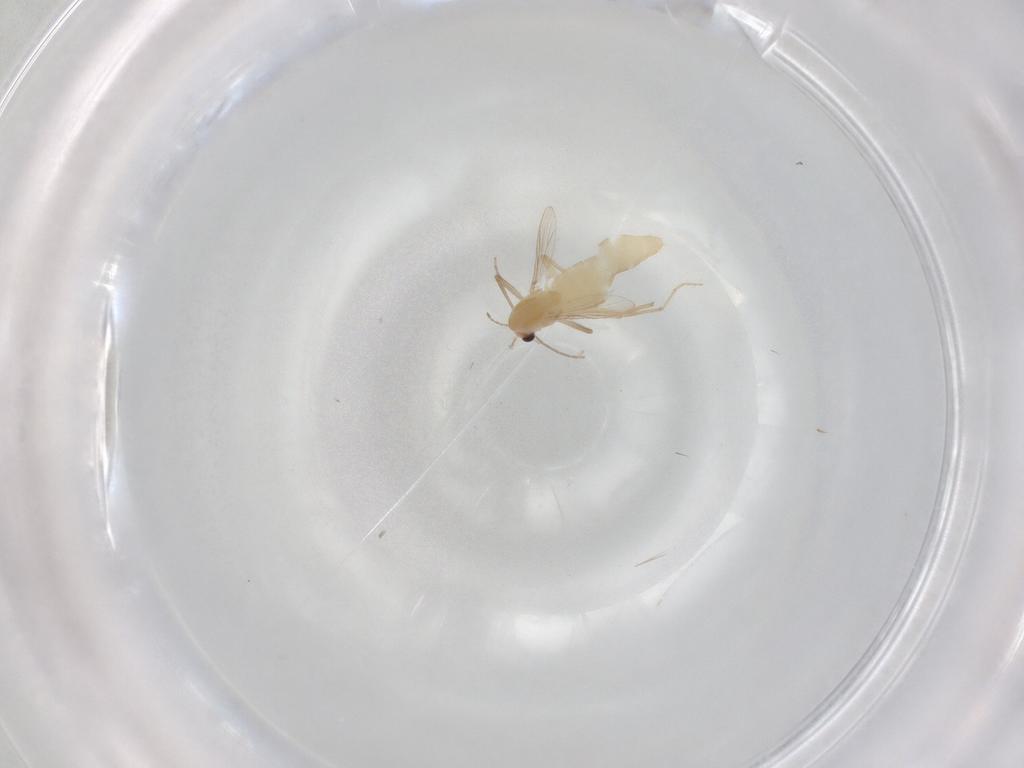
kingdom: Animalia
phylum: Arthropoda
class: Insecta
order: Diptera
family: Chironomidae
